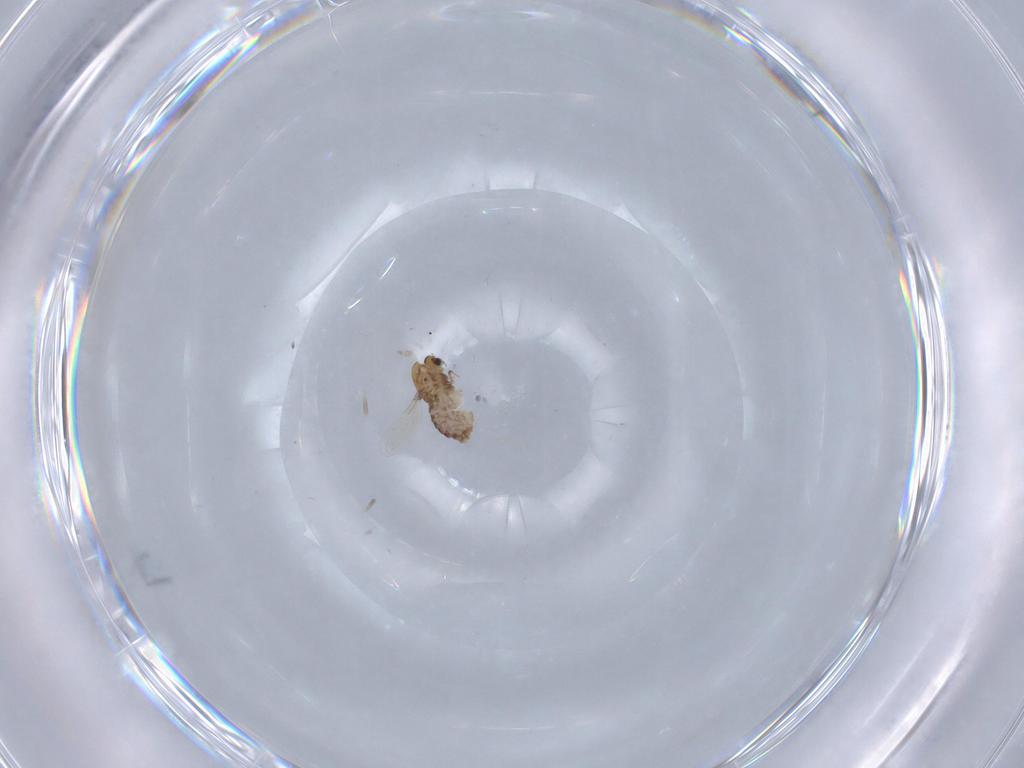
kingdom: Animalia
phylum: Arthropoda
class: Insecta
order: Diptera
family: Chironomidae
